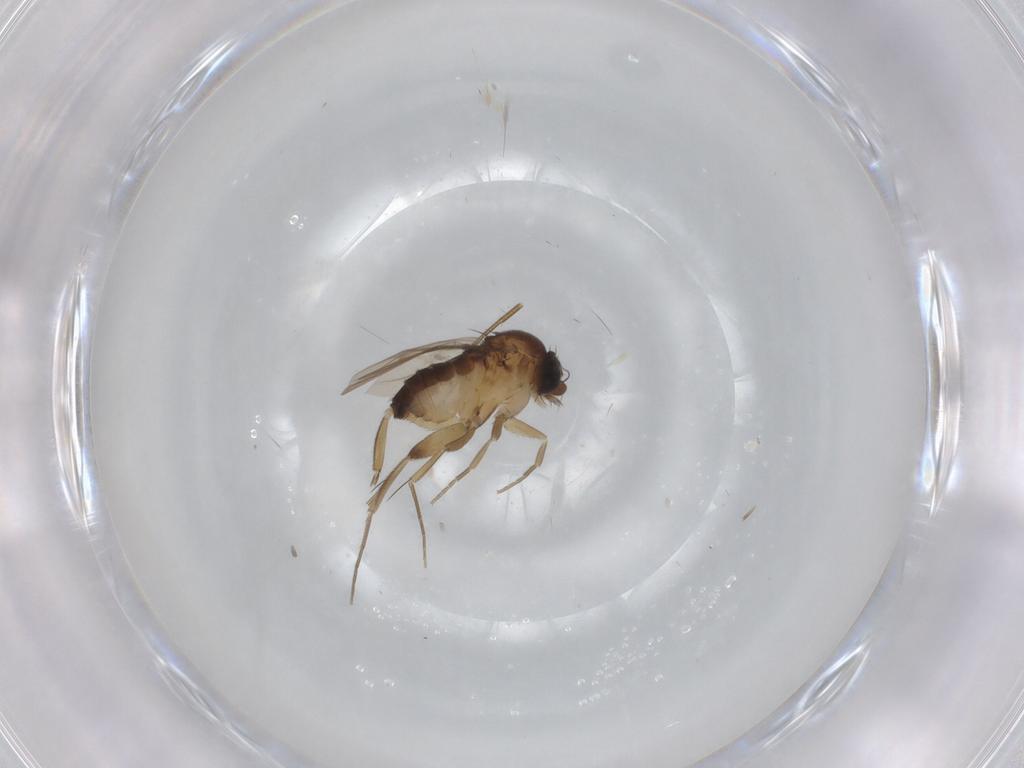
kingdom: Animalia
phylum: Arthropoda
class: Insecta
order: Diptera
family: Phoridae
